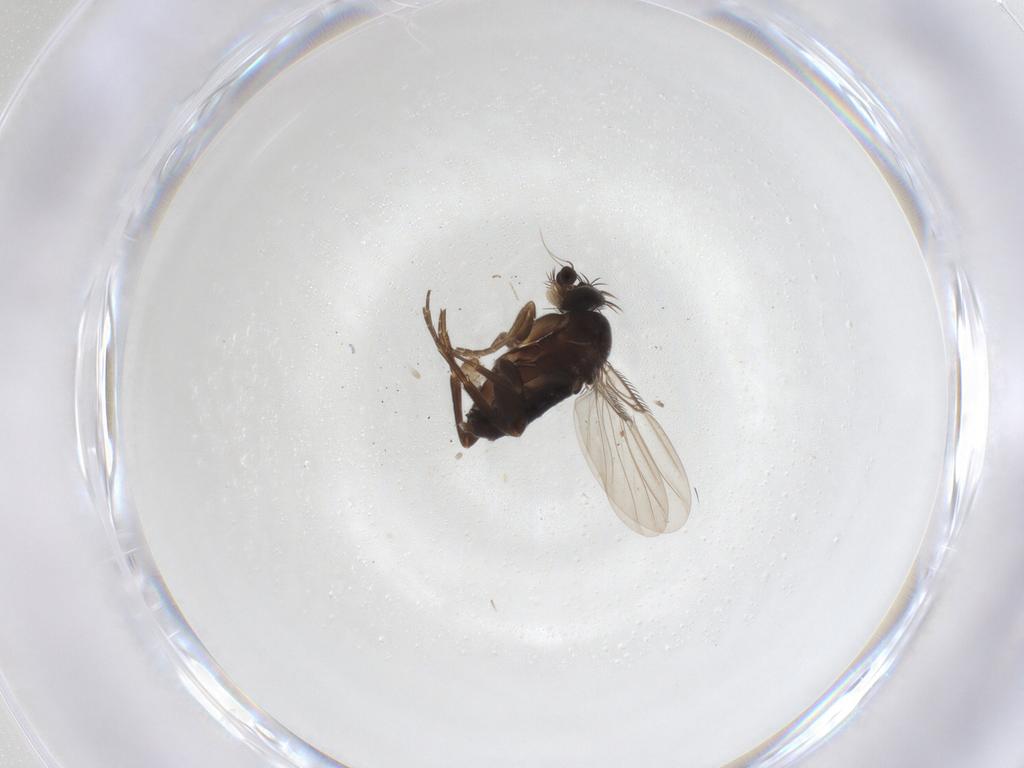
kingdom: Animalia
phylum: Arthropoda
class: Insecta
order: Diptera
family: Phoridae
